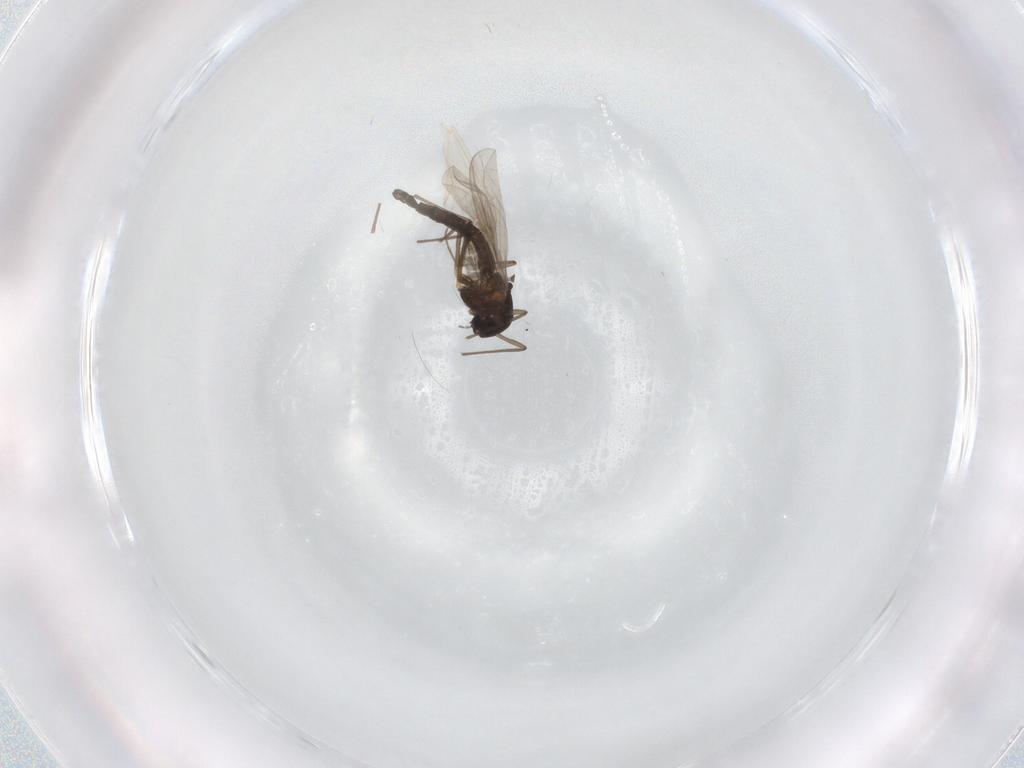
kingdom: Animalia
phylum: Arthropoda
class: Insecta
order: Diptera
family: Chironomidae
